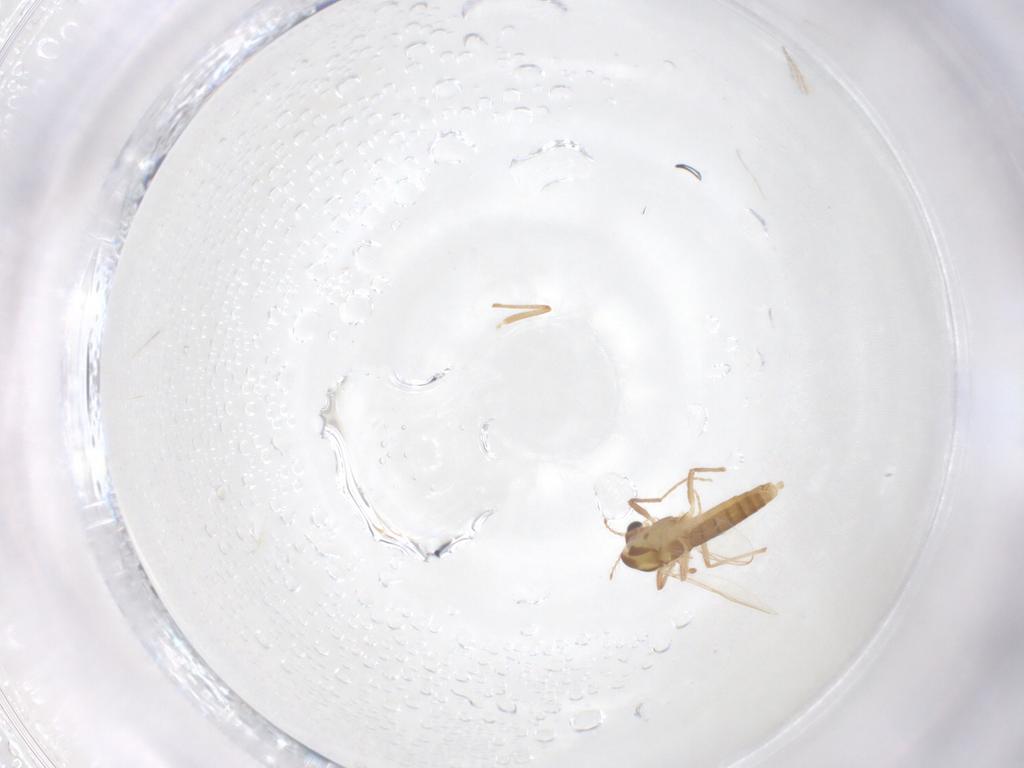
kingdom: Animalia
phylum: Arthropoda
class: Insecta
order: Diptera
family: Chironomidae
